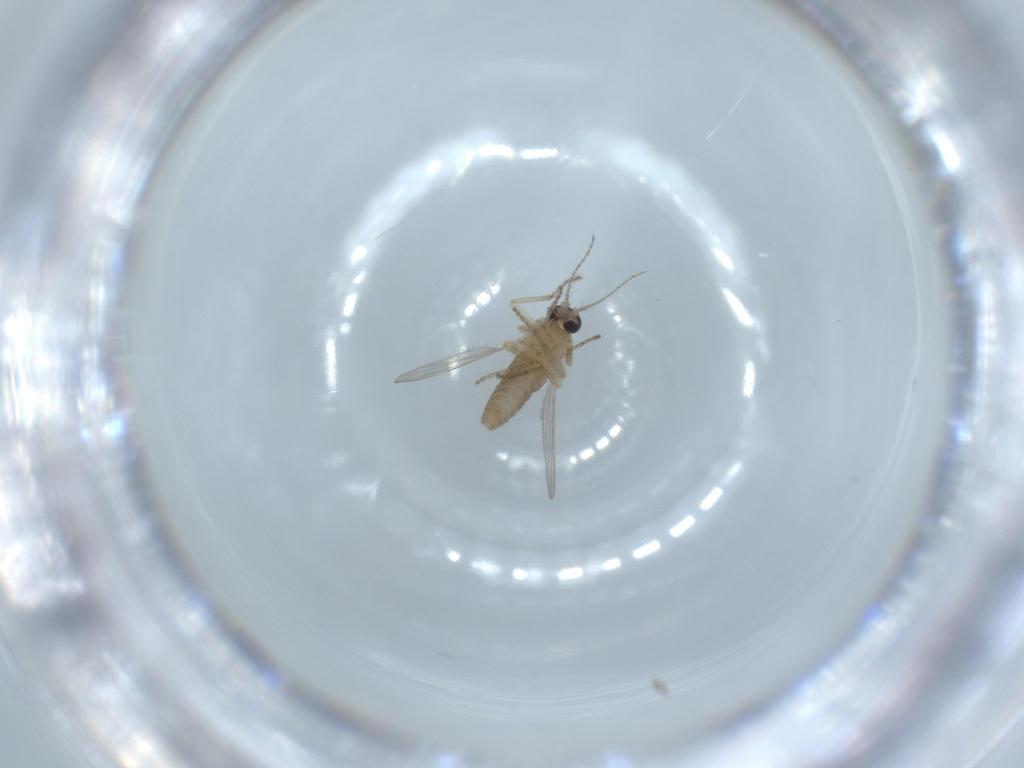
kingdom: Animalia
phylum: Arthropoda
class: Insecta
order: Diptera
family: Ceratopogonidae
